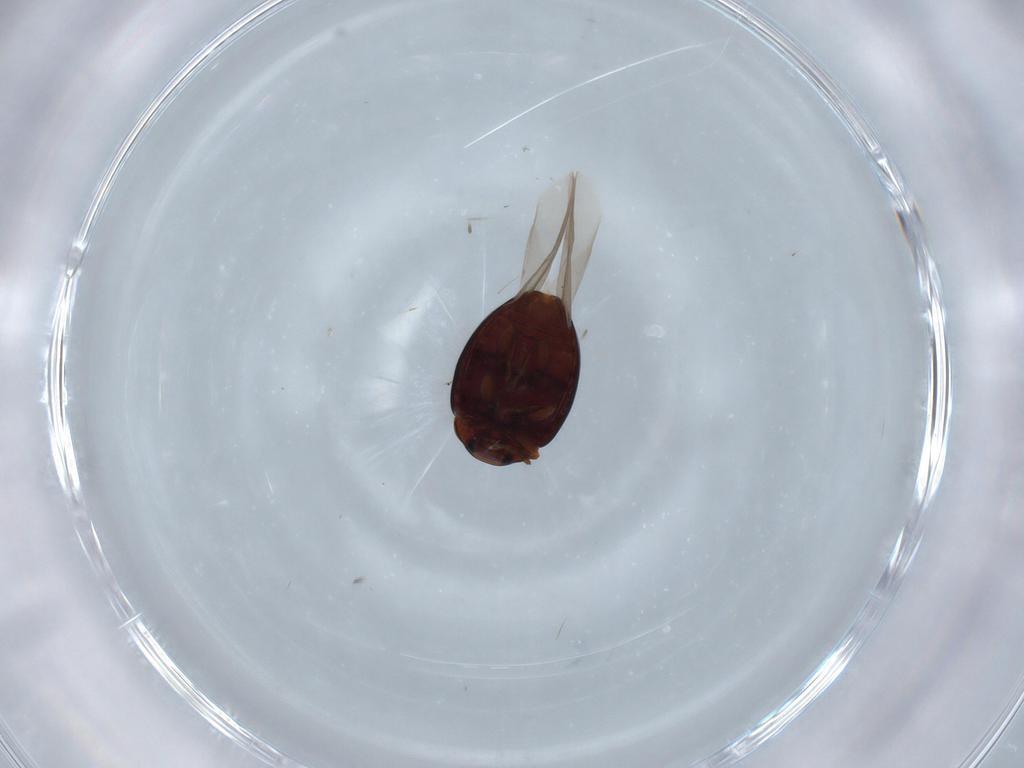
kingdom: Animalia
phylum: Arthropoda
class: Insecta
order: Coleoptera
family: Coccinellidae
